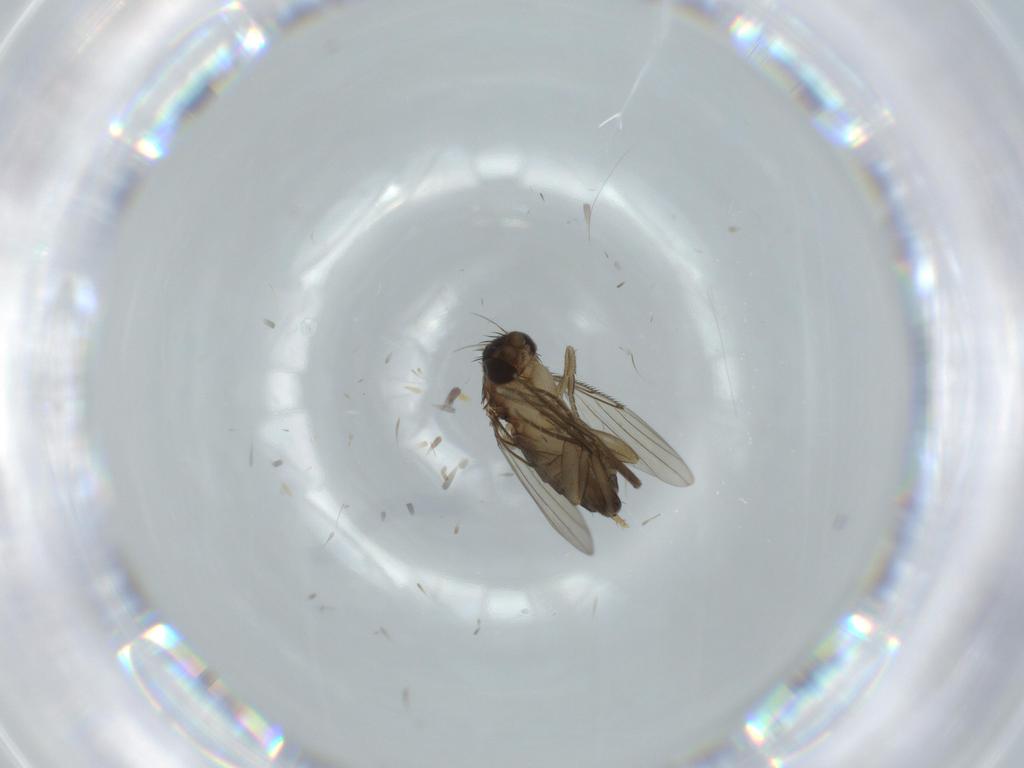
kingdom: Animalia
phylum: Arthropoda
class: Insecta
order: Diptera
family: Phoridae
